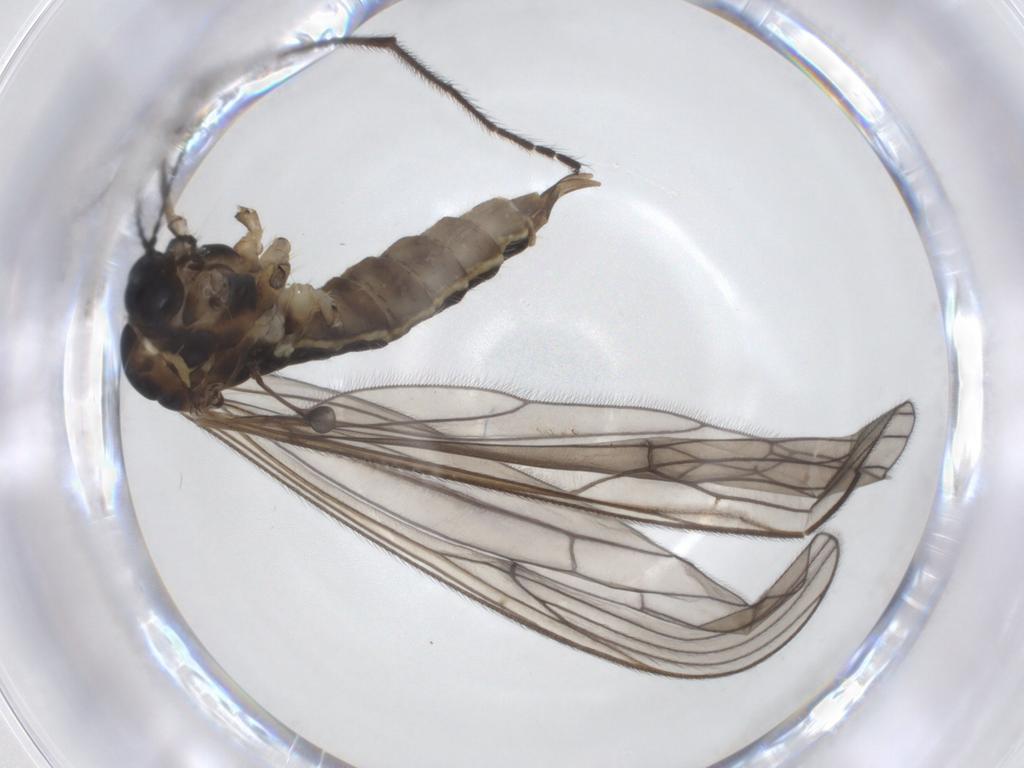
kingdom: Animalia
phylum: Arthropoda
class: Insecta
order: Diptera
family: Limoniidae
